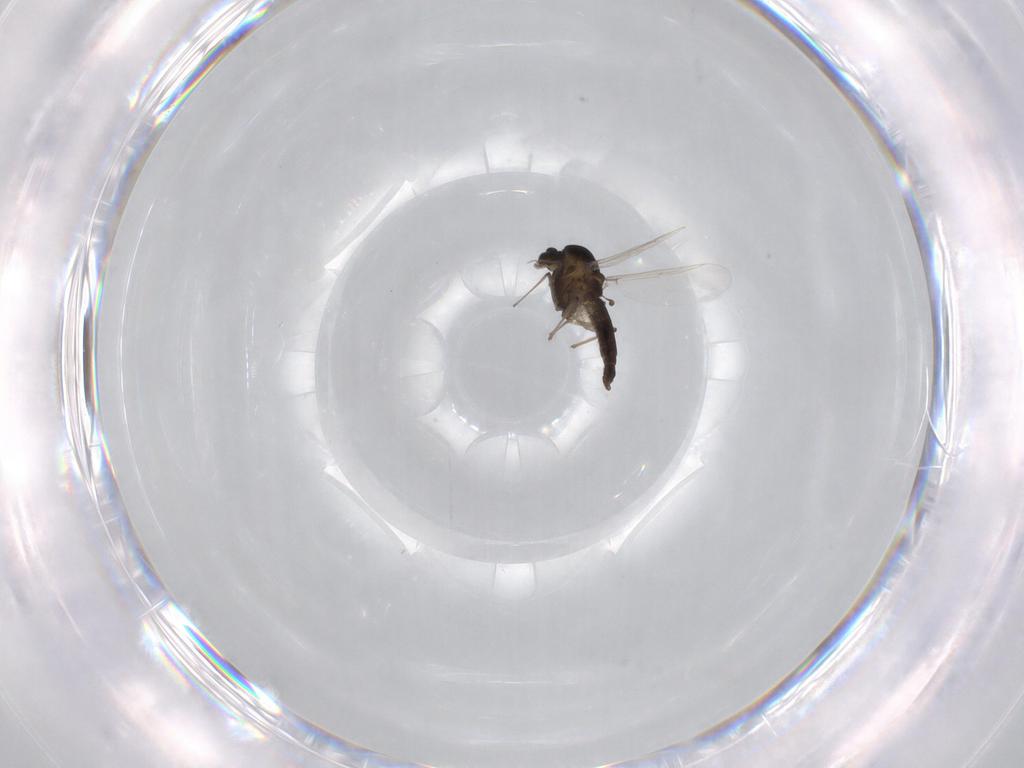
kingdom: Animalia
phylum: Arthropoda
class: Insecta
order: Diptera
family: Chironomidae
